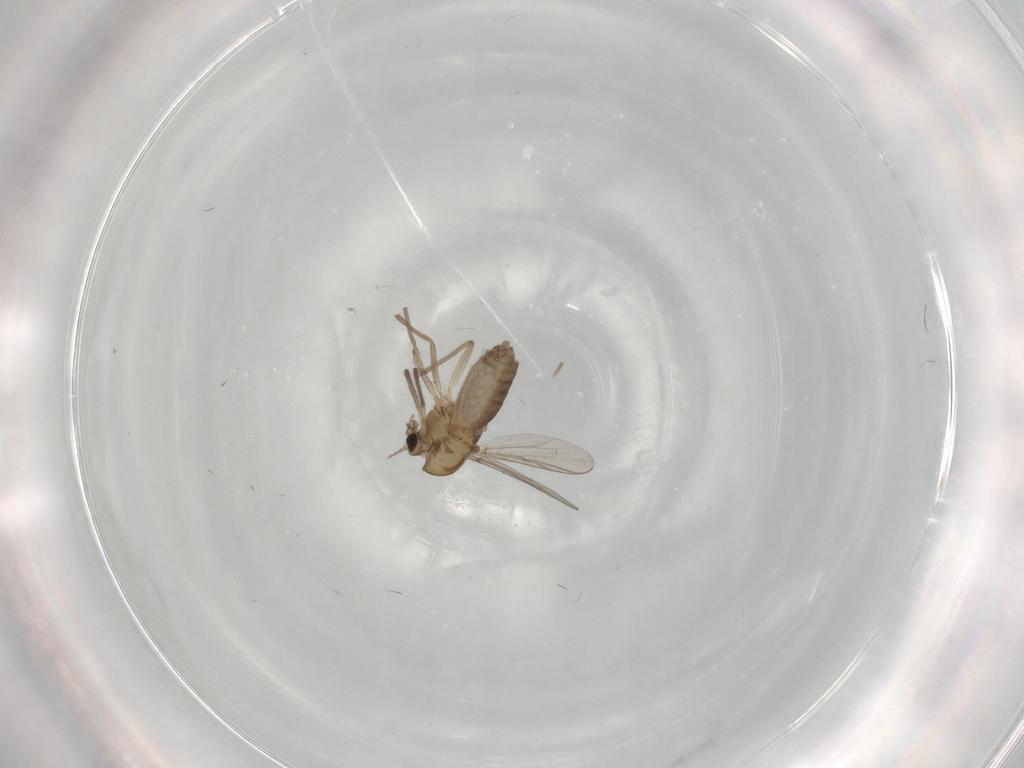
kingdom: Animalia
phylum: Arthropoda
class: Insecta
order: Diptera
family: Chironomidae
